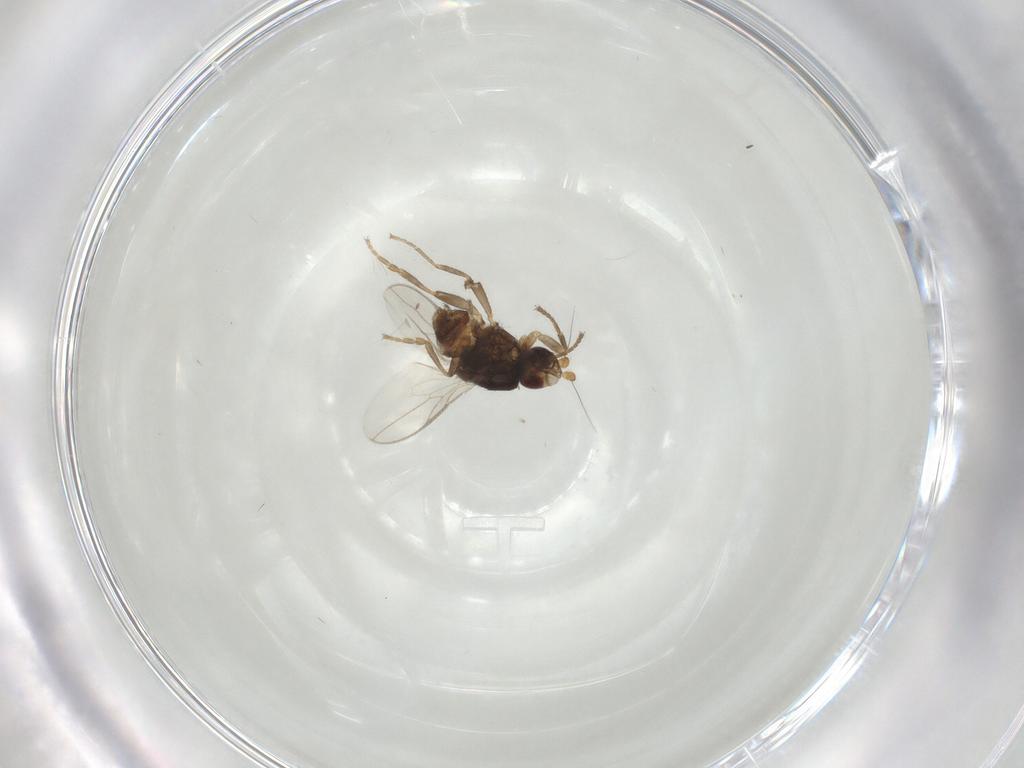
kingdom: Animalia
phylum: Arthropoda
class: Insecta
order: Diptera
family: Sphaeroceridae
